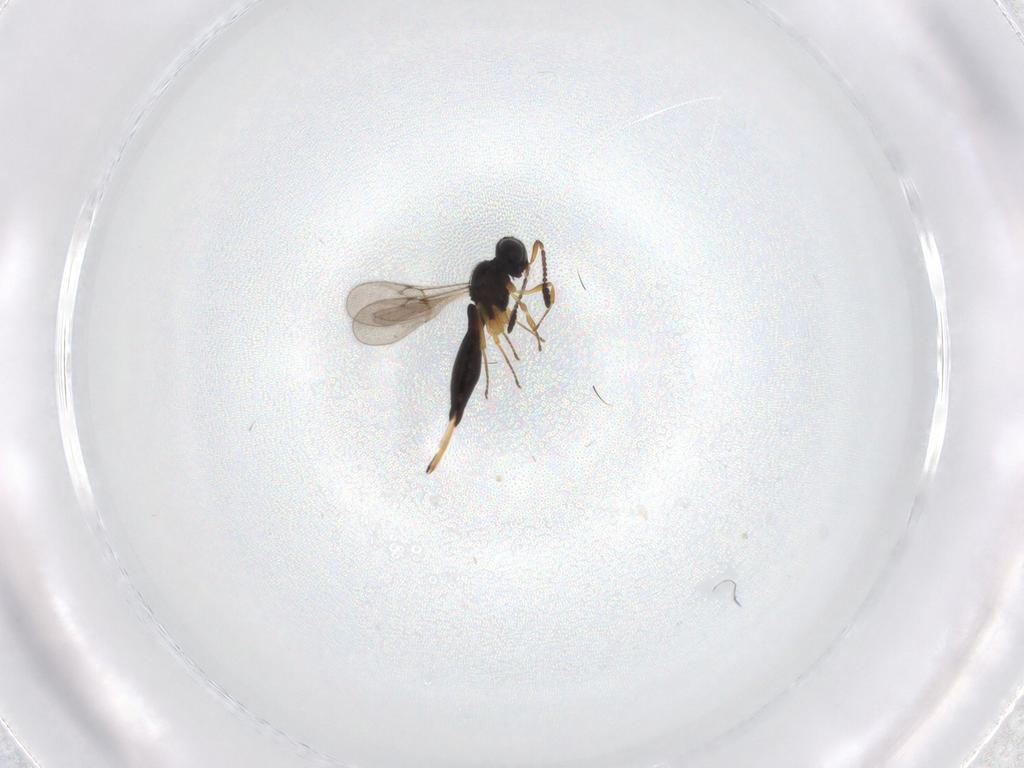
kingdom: Animalia
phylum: Arthropoda
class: Insecta
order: Hymenoptera
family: Scelionidae
